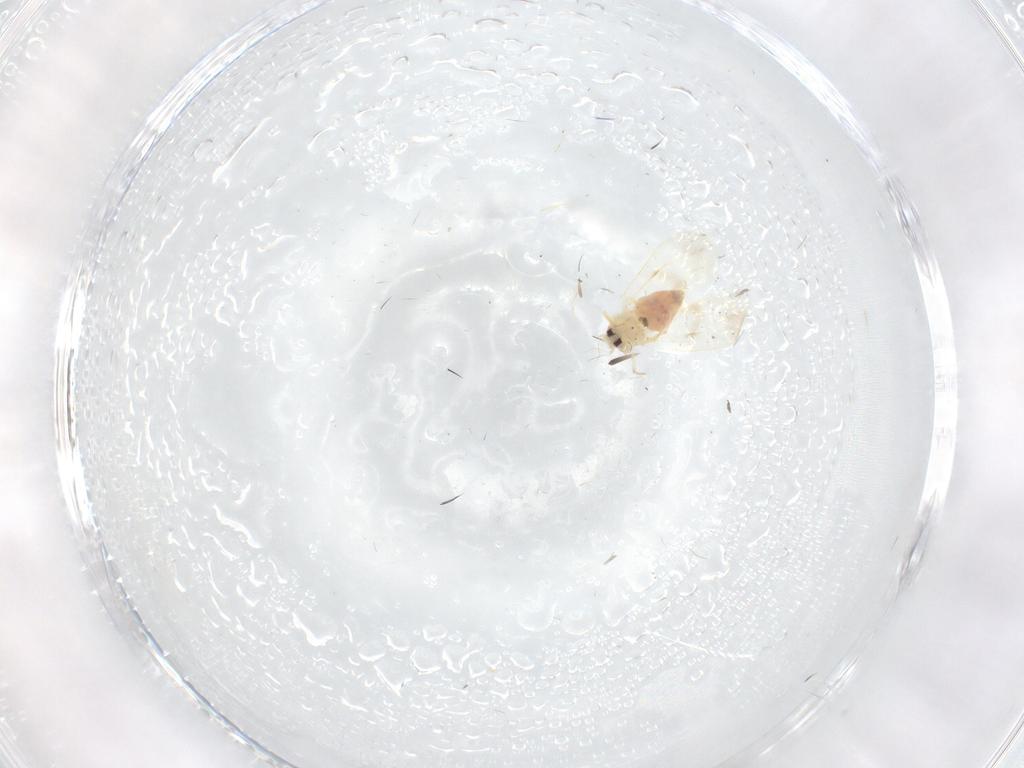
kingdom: Animalia
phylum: Arthropoda
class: Insecta
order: Hemiptera
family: Aleyrodidae
